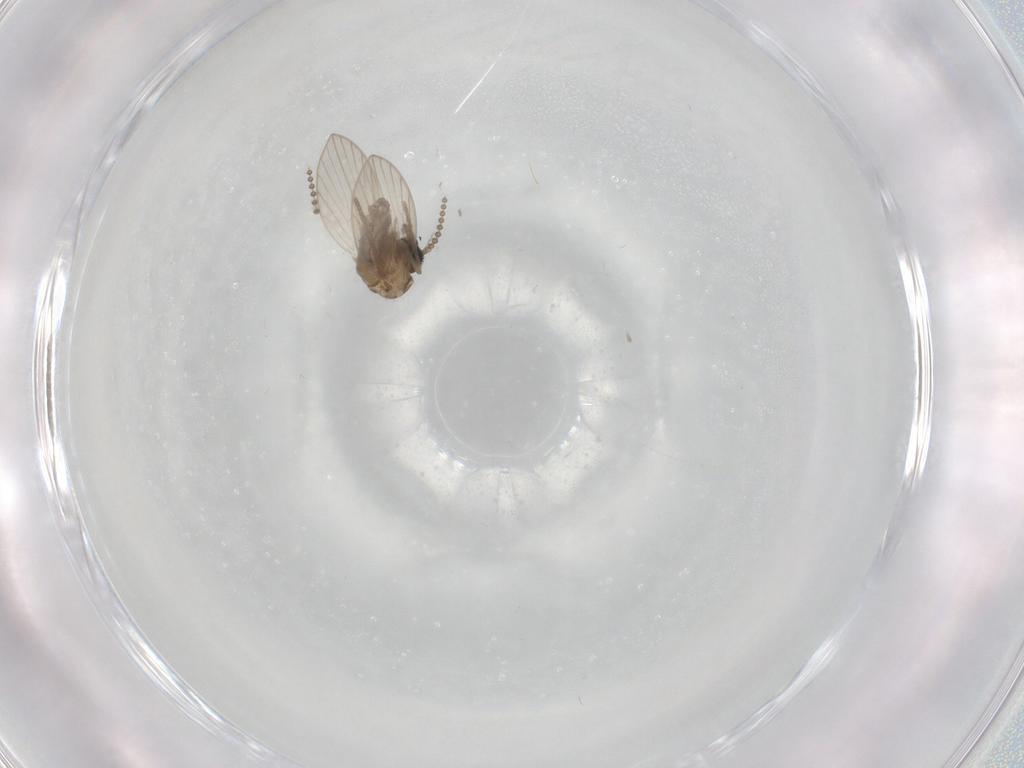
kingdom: Animalia
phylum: Arthropoda
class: Insecta
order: Diptera
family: Psychodidae
